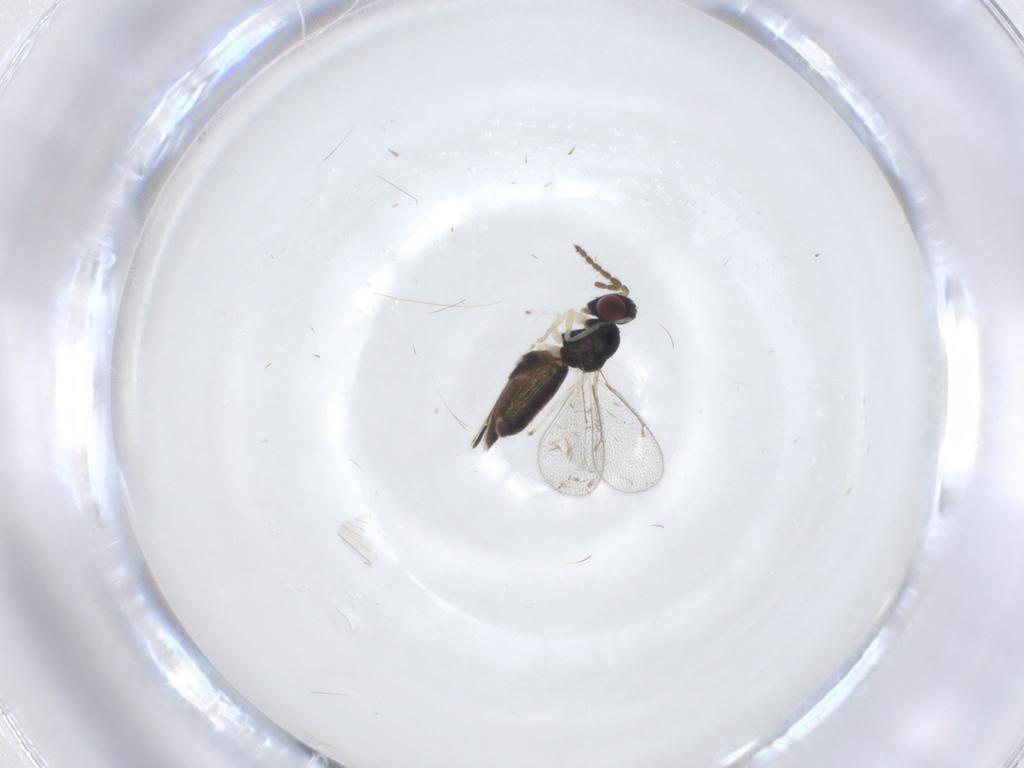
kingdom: Animalia
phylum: Arthropoda
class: Insecta
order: Hymenoptera
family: Eulophidae
